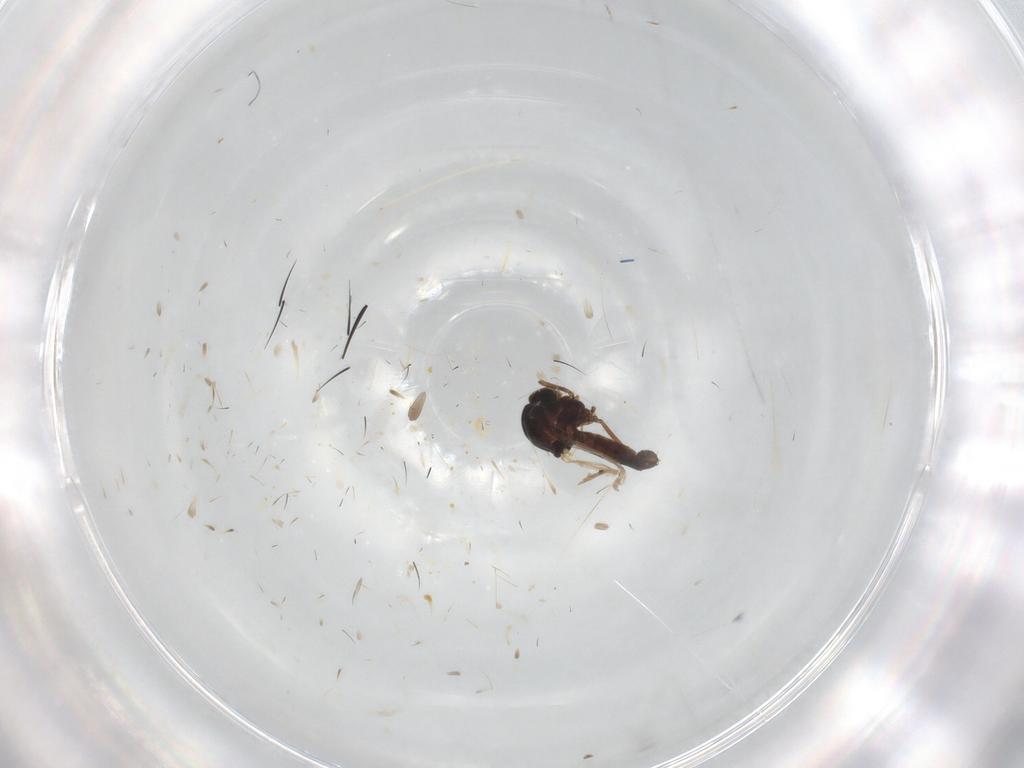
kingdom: Animalia
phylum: Arthropoda
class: Insecta
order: Diptera
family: Ceratopogonidae
